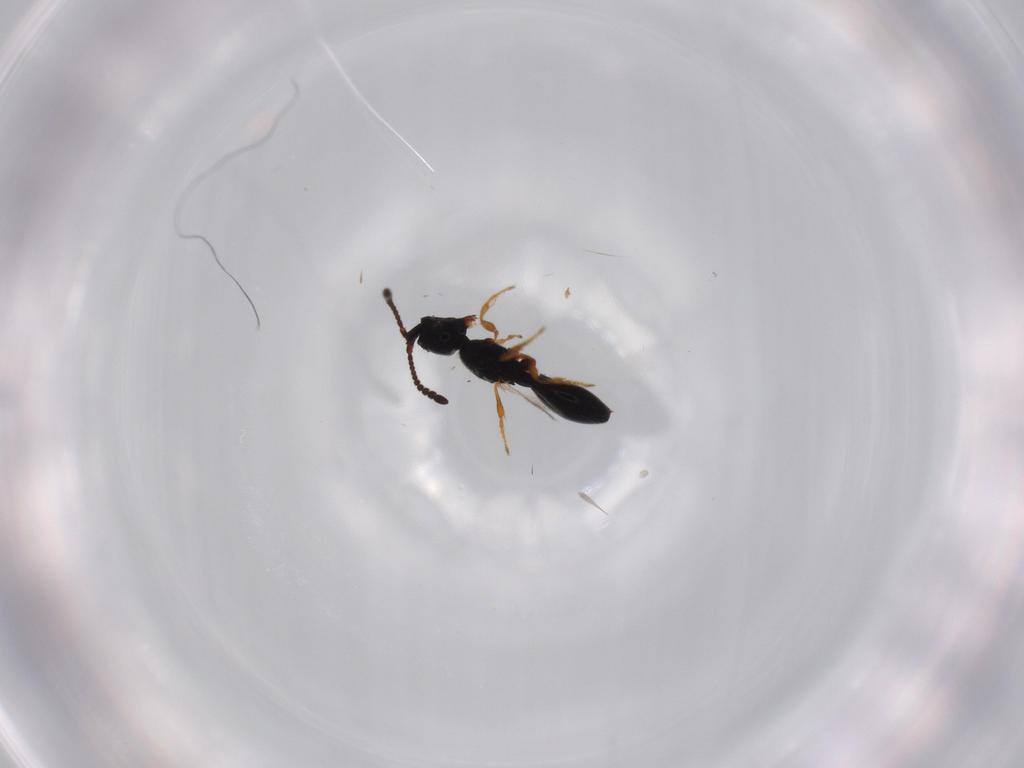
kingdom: Animalia
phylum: Arthropoda
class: Insecta
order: Hymenoptera
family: Diapriidae
